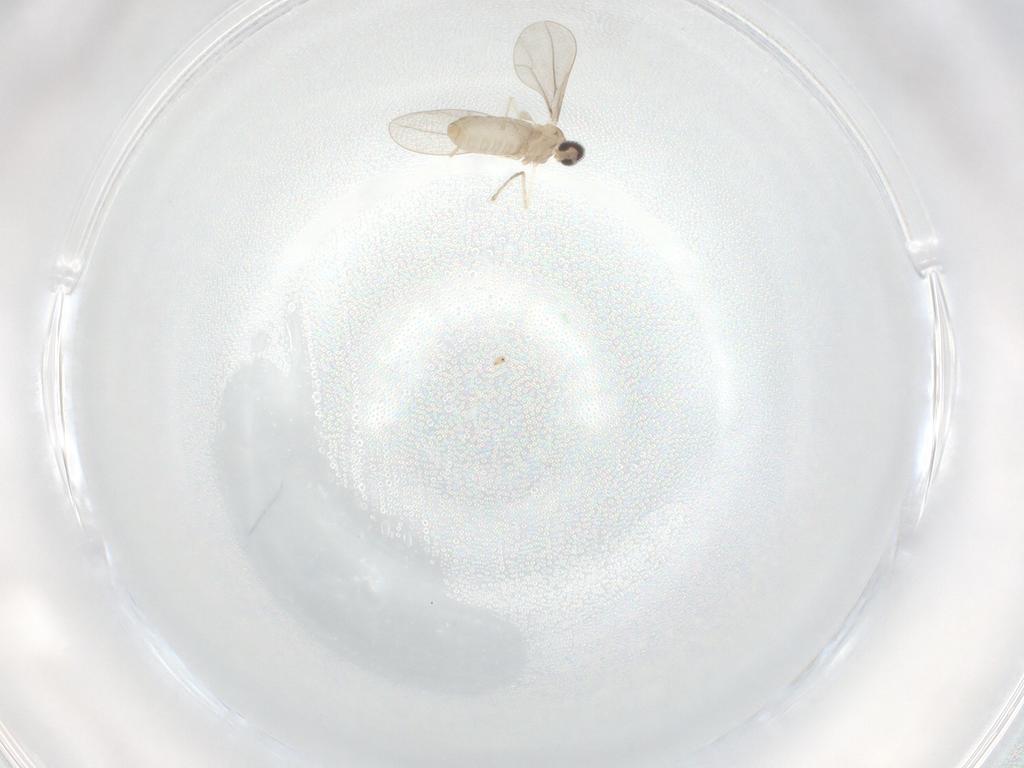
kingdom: Animalia
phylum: Arthropoda
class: Insecta
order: Diptera
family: Cecidomyiidae
